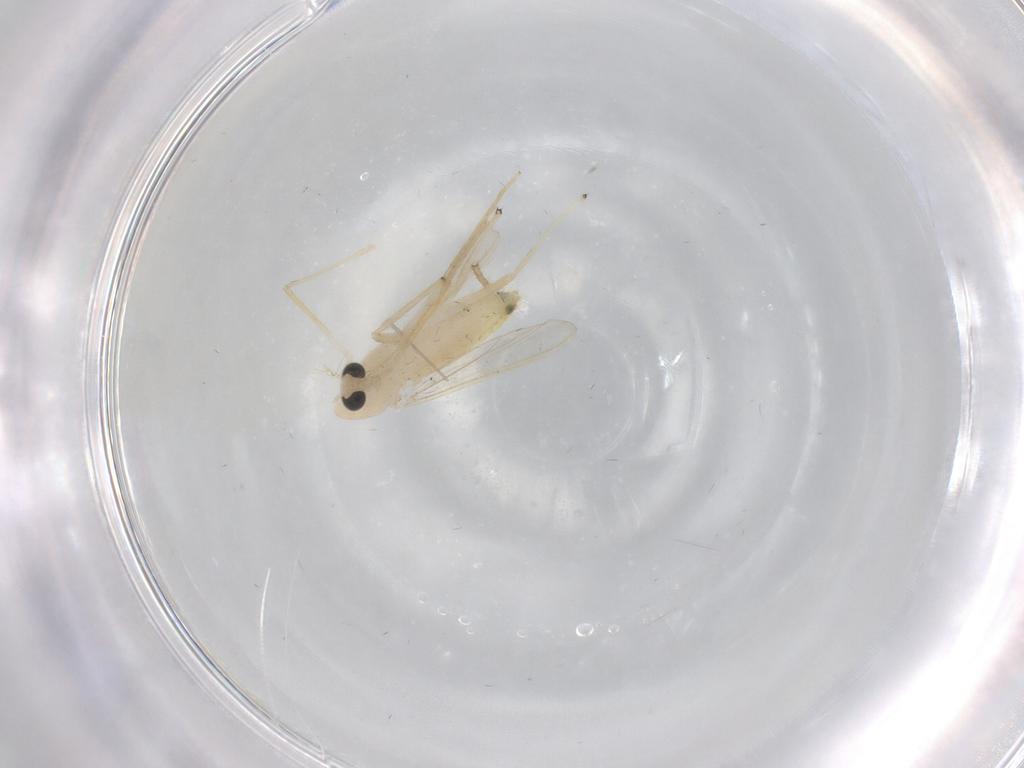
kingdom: Animalia
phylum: Arthropoda
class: Insecta
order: Diptera
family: Chironomidae
